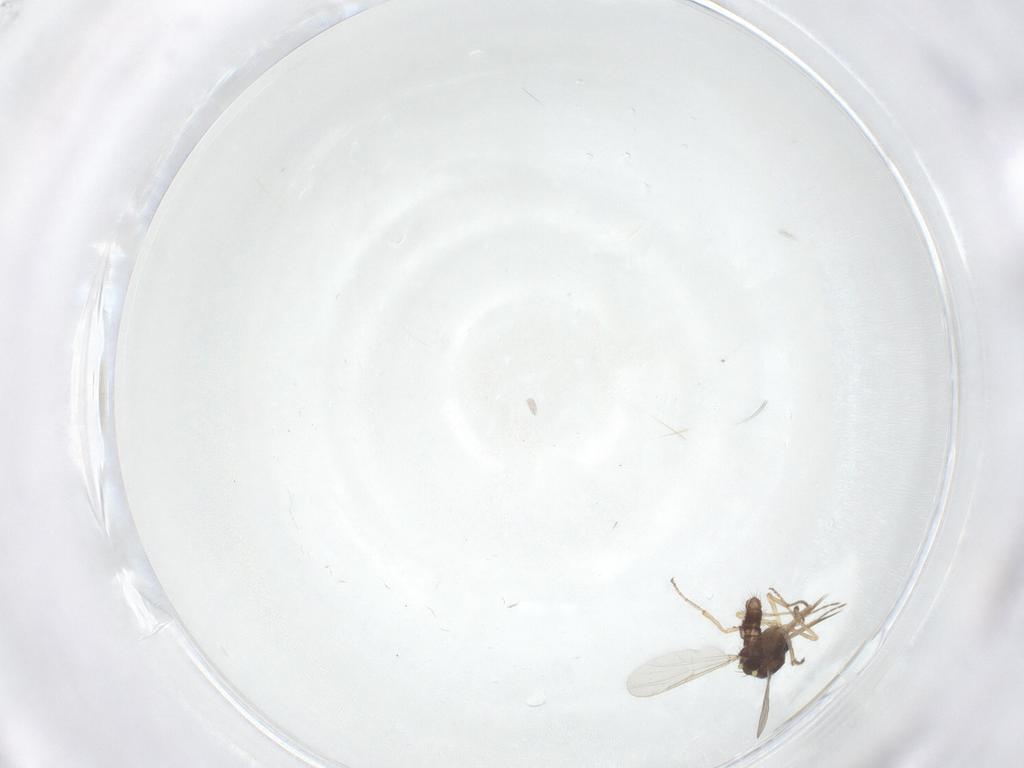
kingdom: Animalia
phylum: Arthropoda
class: Insecta
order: Diptera
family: Ceratopogonidae
